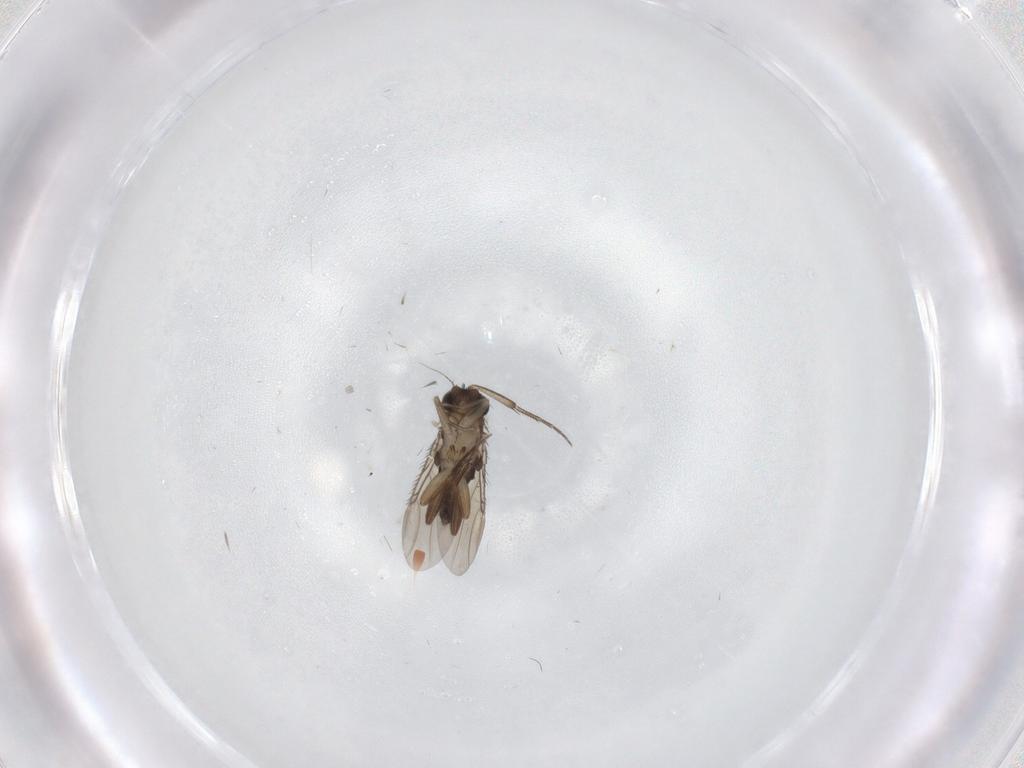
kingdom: Animalia
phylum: Arthropoda
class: Insecta
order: Diptera
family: Phoridae
